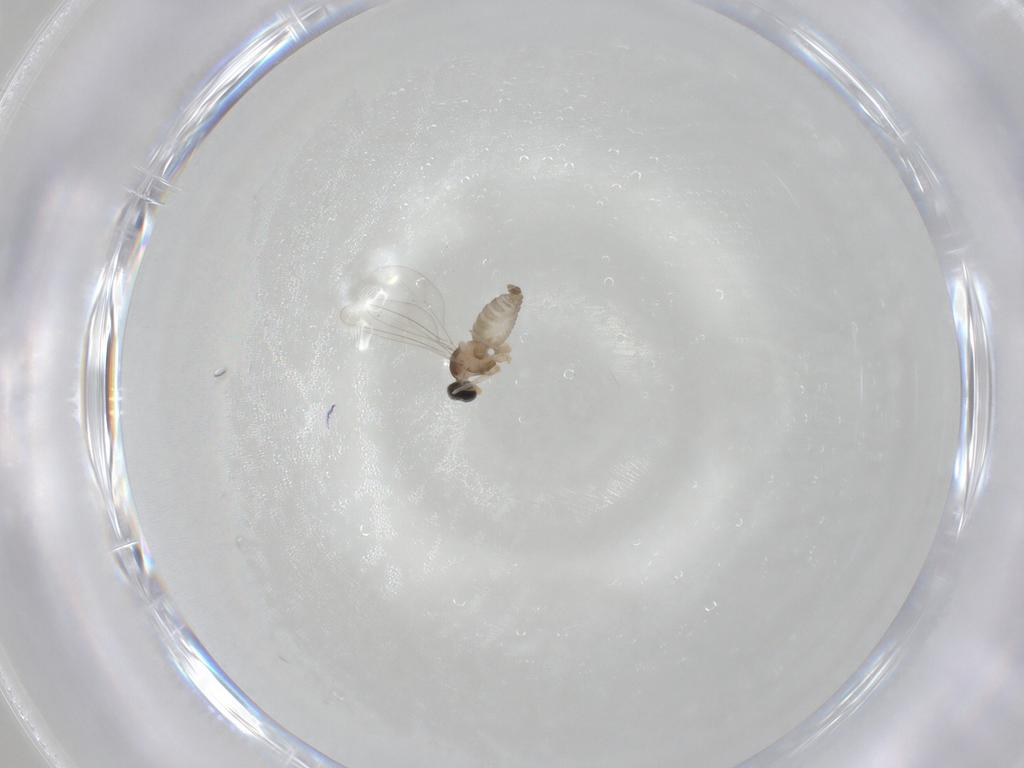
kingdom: Animalia
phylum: Arthropoda
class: Insecta
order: Diptera
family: Cecidomyiidae
